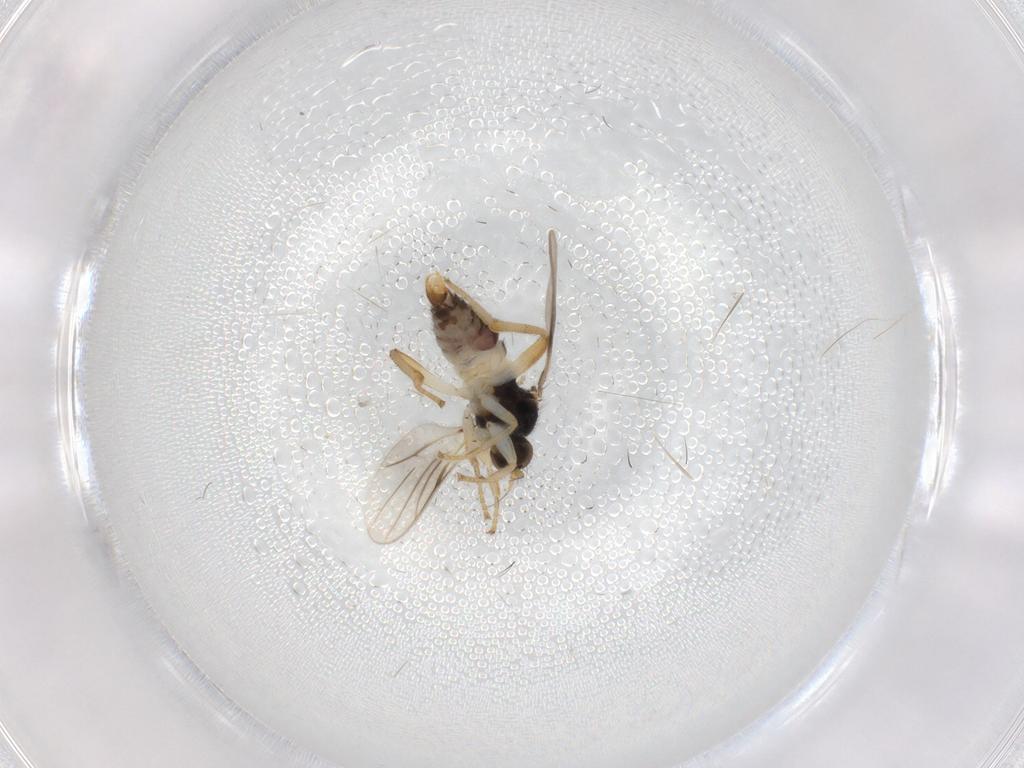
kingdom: Animalia
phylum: Arthropoda
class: Insecta
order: Diptera
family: Hybotidae
